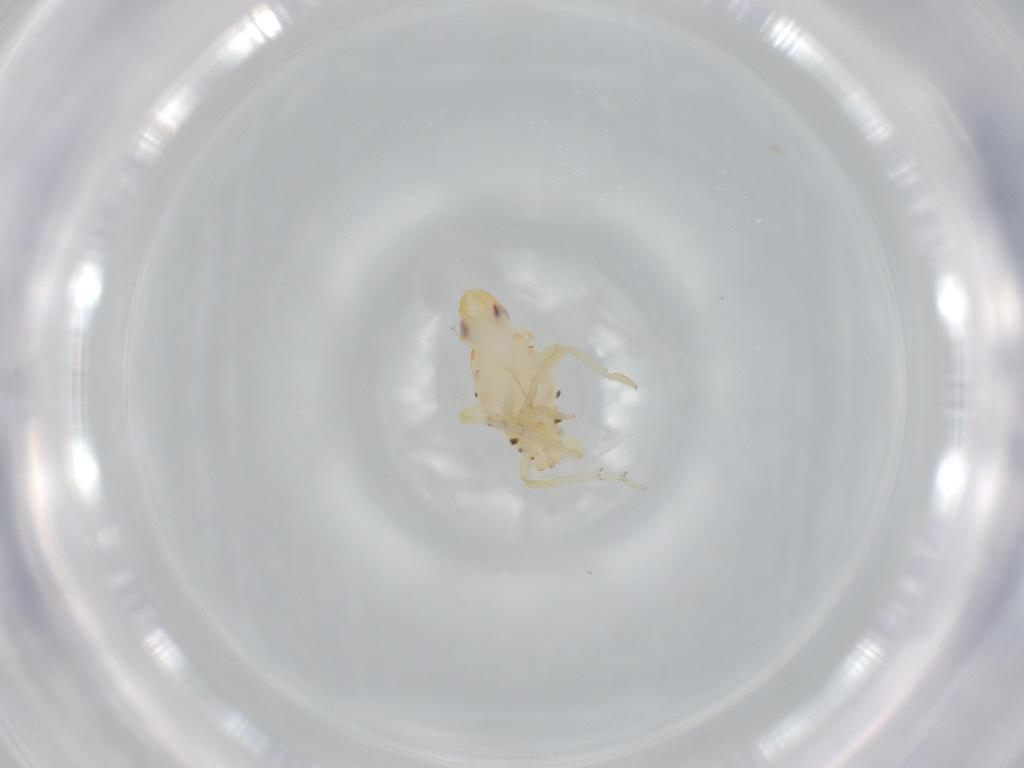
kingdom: Animalia
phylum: Arthropoda
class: Insecta
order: Hemiptera
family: Tropiduchidae
